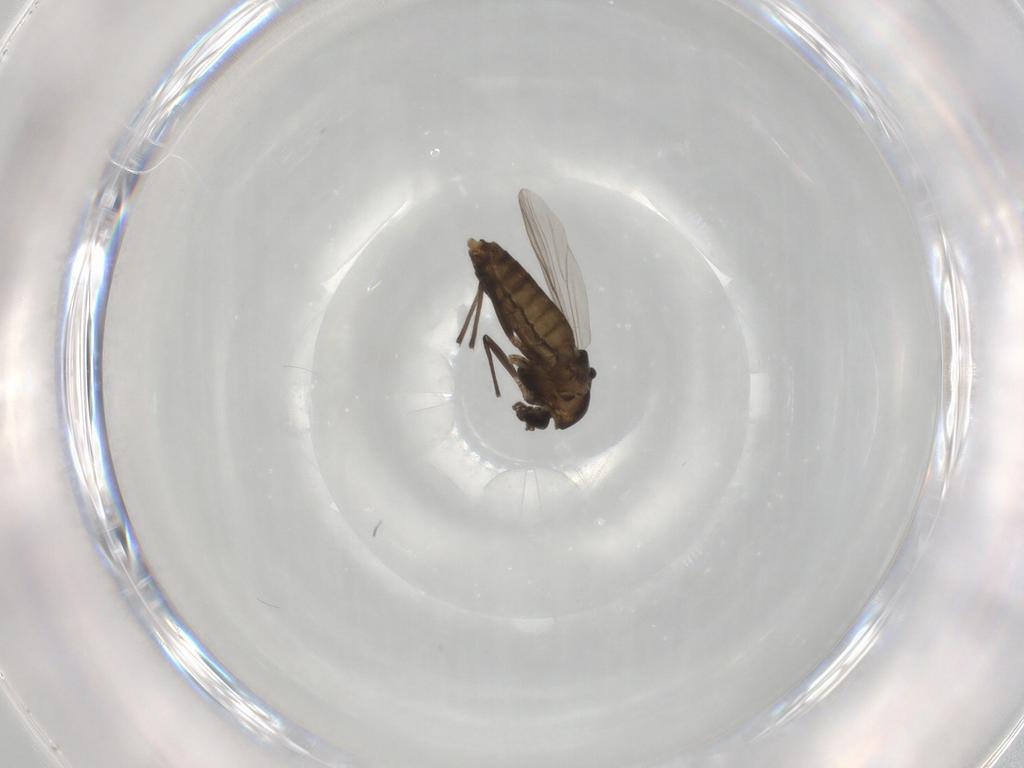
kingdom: Animalia
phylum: Arthropoda
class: Insecta
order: Diptera
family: Chironomidae
